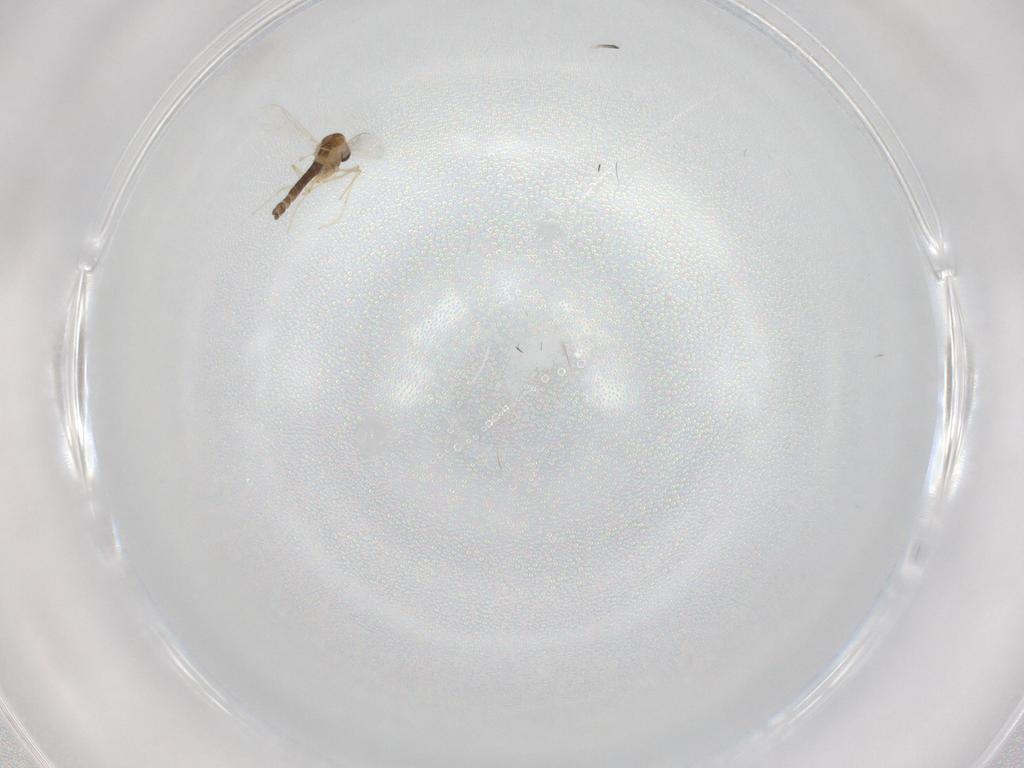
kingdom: Animalia
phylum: Arthropoda
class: Insecta
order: Diptera
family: Chironomidae
